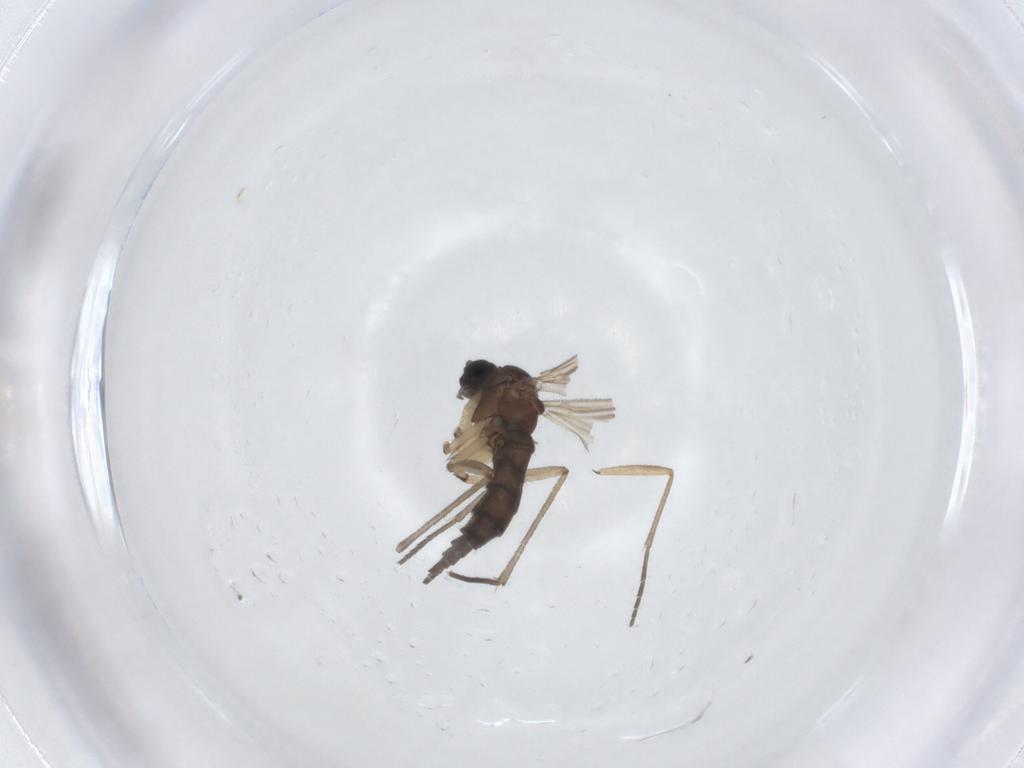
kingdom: Animalia
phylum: Arthropoda
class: Insecta
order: Diptera
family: Sciaridae
